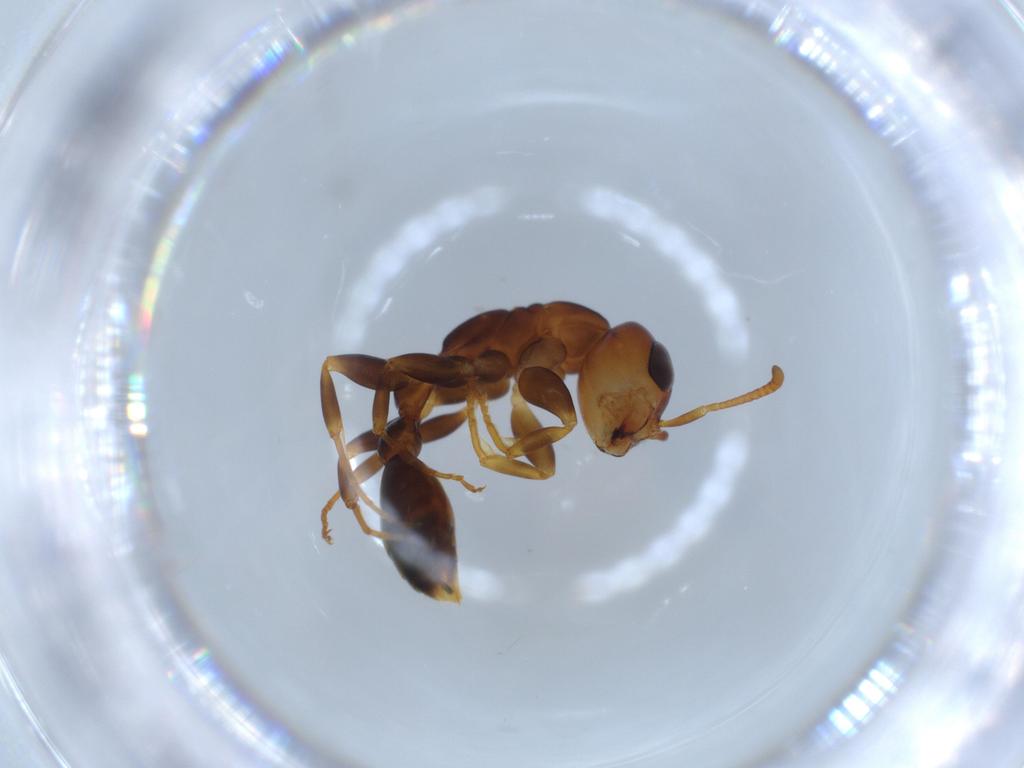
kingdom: Animalia
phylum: Arthropoda
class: Insecta
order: Hymenoptera
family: Formicidae
